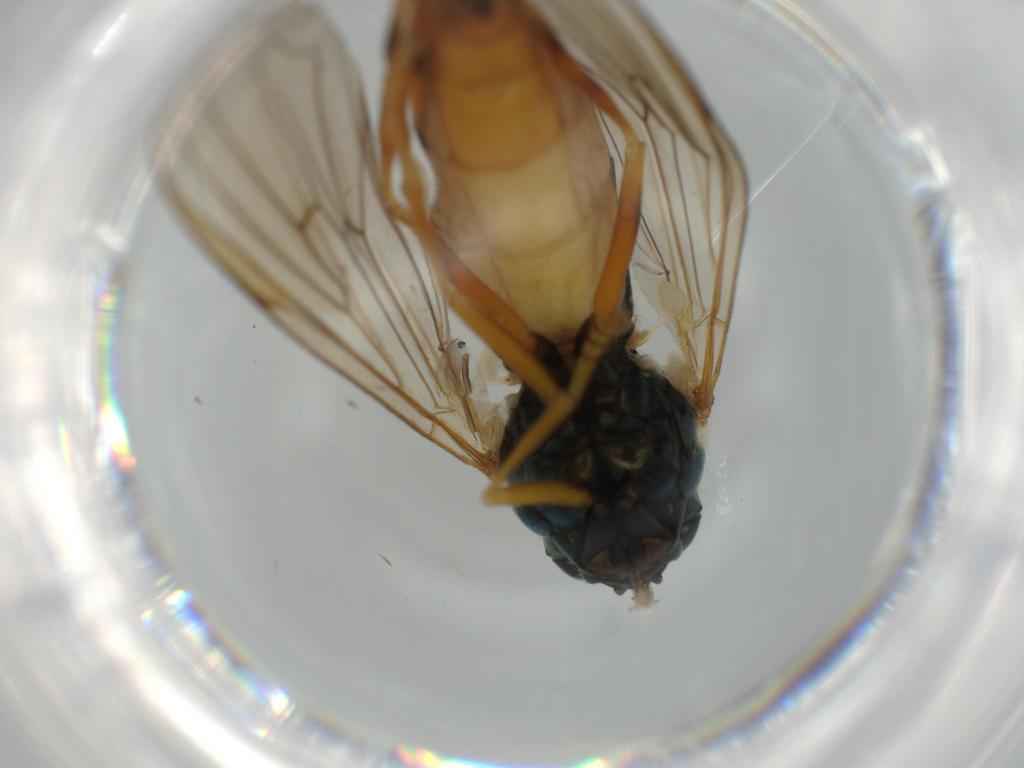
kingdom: Animalia
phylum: Arthropoda
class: Insecta
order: Diptera
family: Syrphidae
